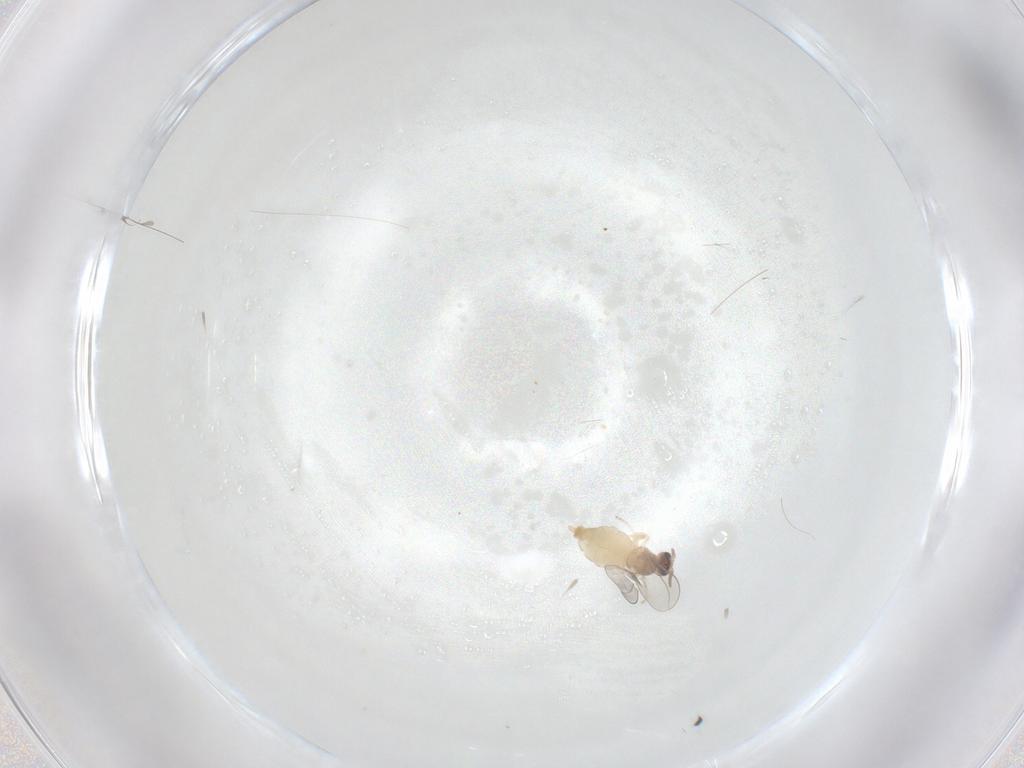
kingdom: Animalia
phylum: Arthropoda
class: Insecta
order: Diptera
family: Cecidomyiidae
